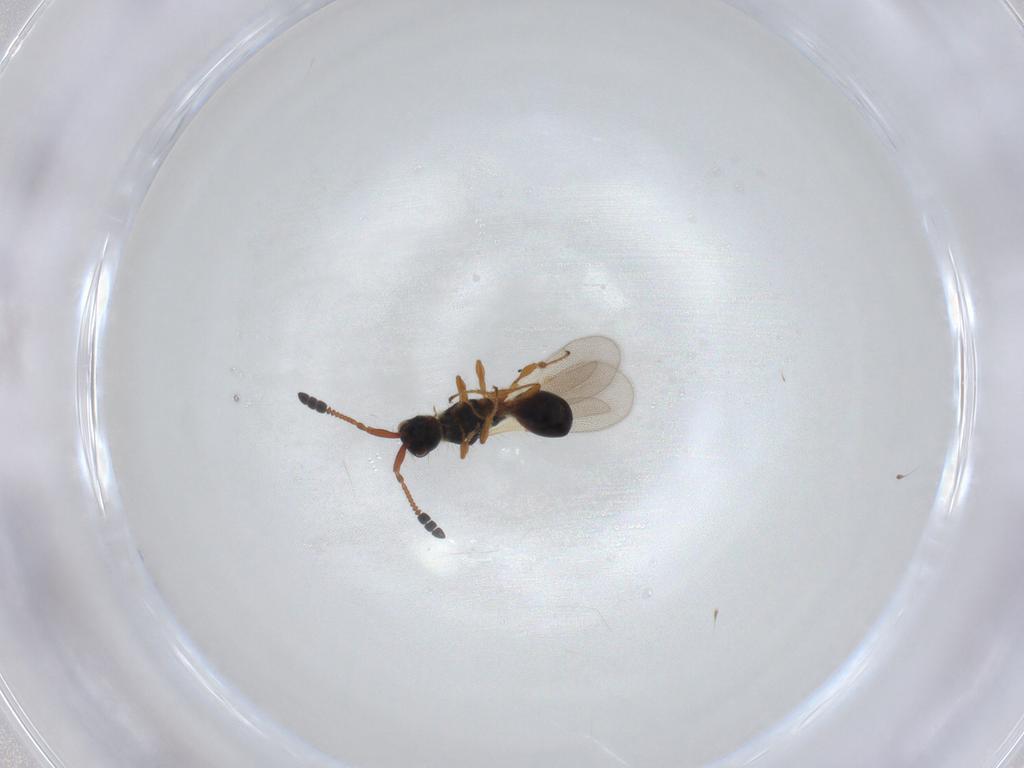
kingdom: Animalia
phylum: Arthropoda
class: Insecta
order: Hymenoptera
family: Diapriidae
